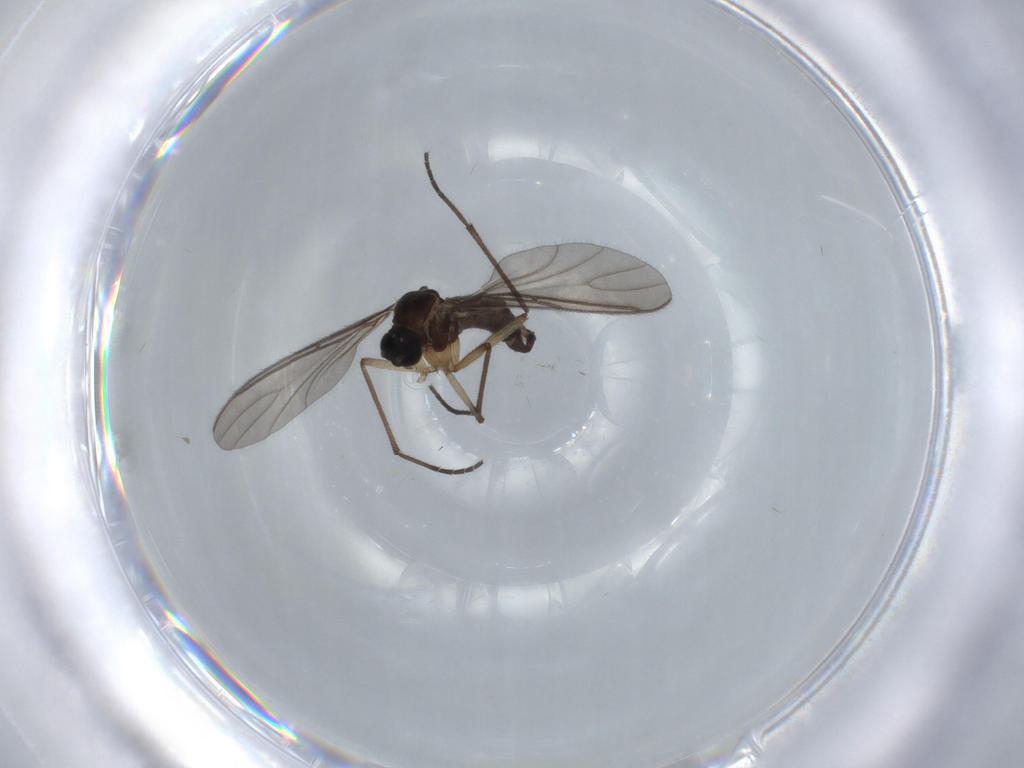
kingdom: Animalia
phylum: Arthropoda
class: Insecta
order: Diptera
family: Sciaridae
